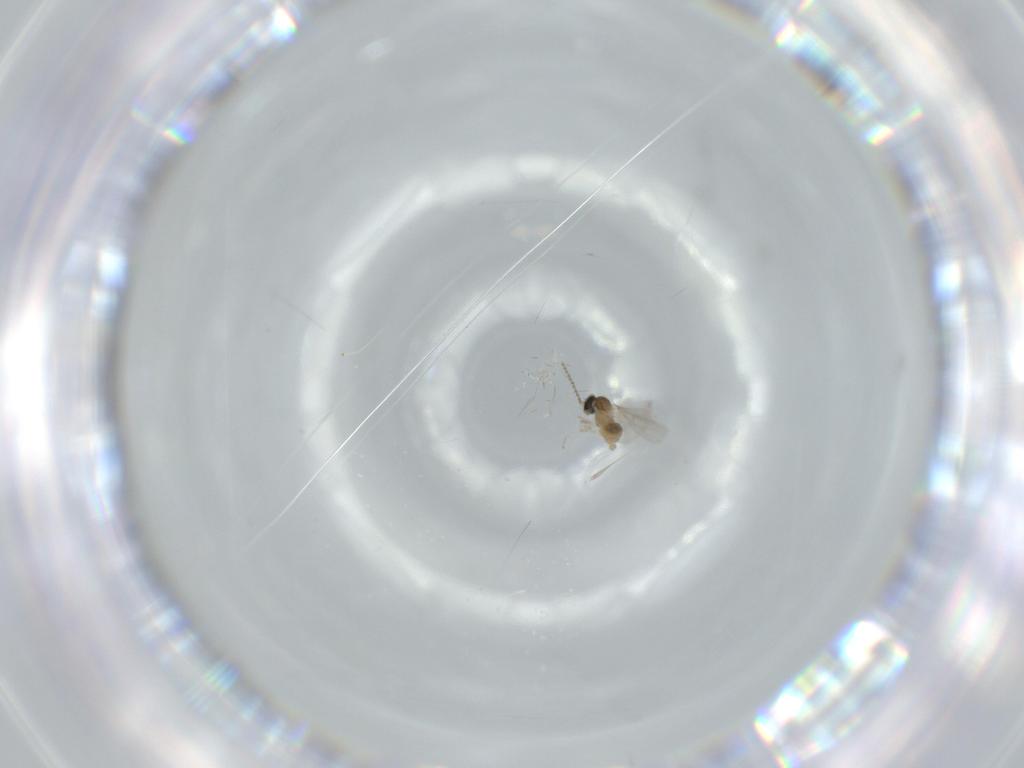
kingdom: Animalia
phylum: Arthropoda
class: Insecta
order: Diptera
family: Cecidomyiidae
